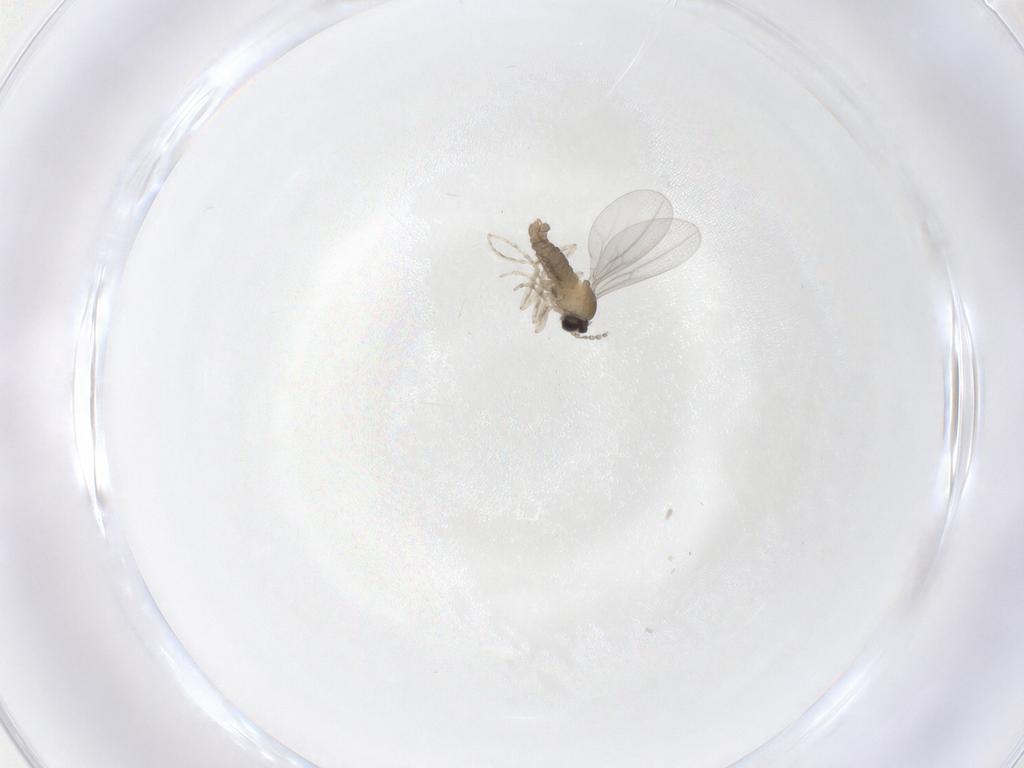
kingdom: Animalia
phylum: Arthropoda
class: Insecta
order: Diptera
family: Cecidomyiidae
